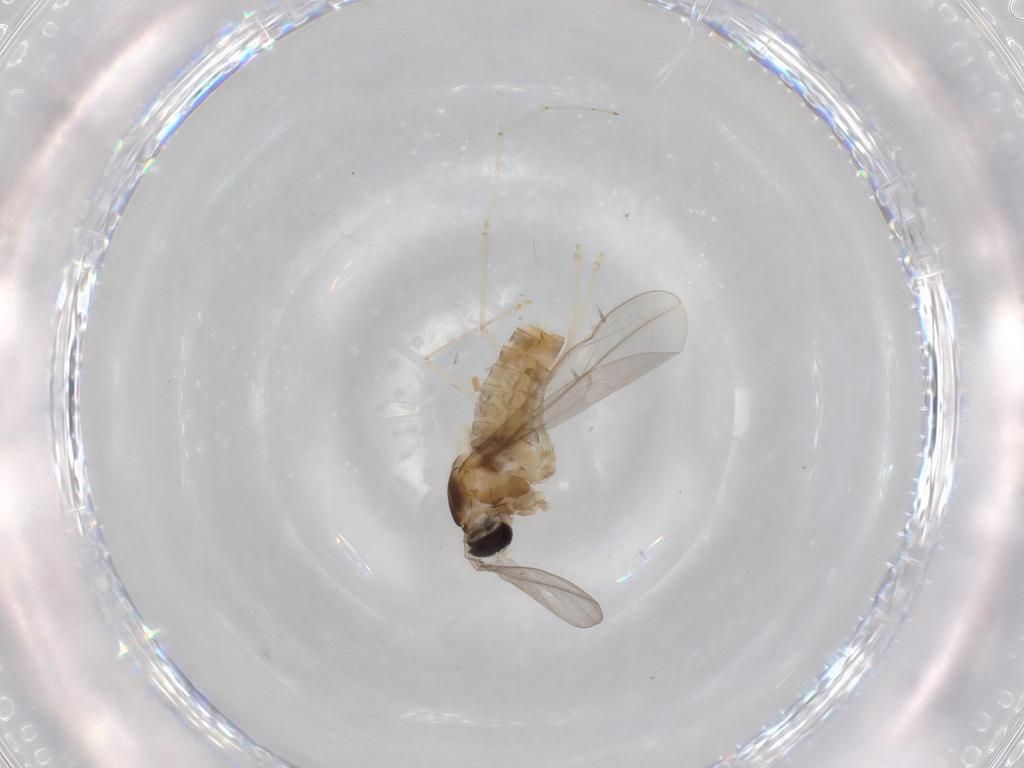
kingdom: Animalia
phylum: Arthropoda
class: Insecta
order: Diptera
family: Cecidomyiidae
